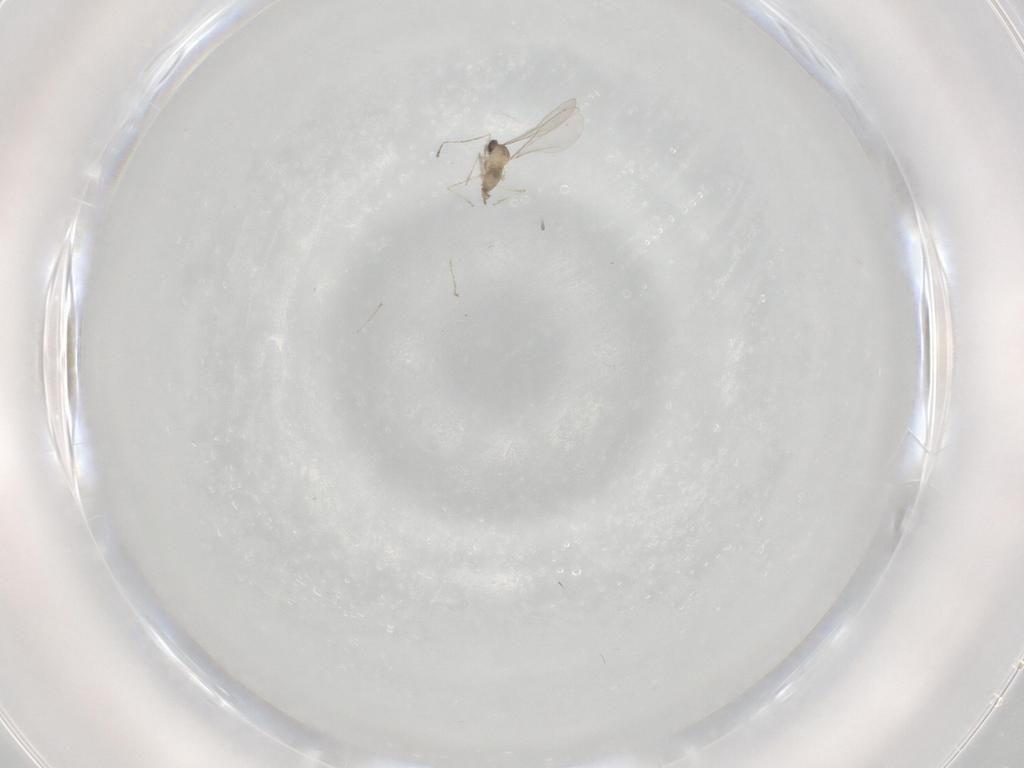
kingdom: Animalia
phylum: Arthropoda
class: Insecta
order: Diptera
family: Cecidomyiidae
